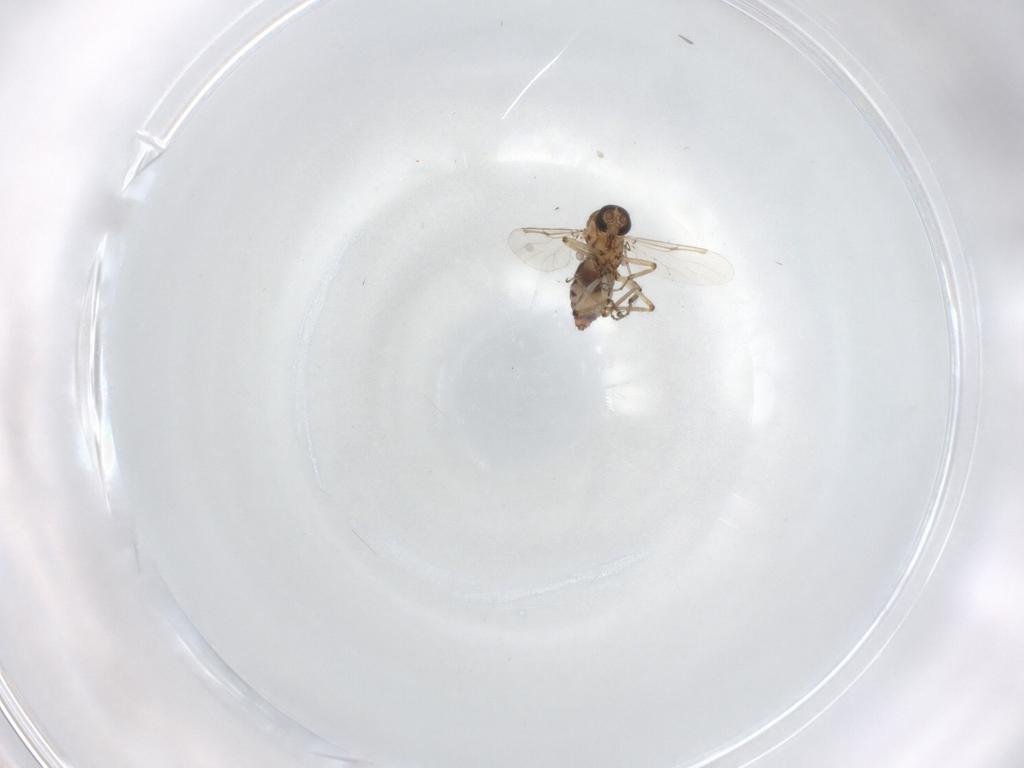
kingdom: Animalia
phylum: Arthropoda
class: Insecta
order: Diptera
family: Ceratopogonidae
